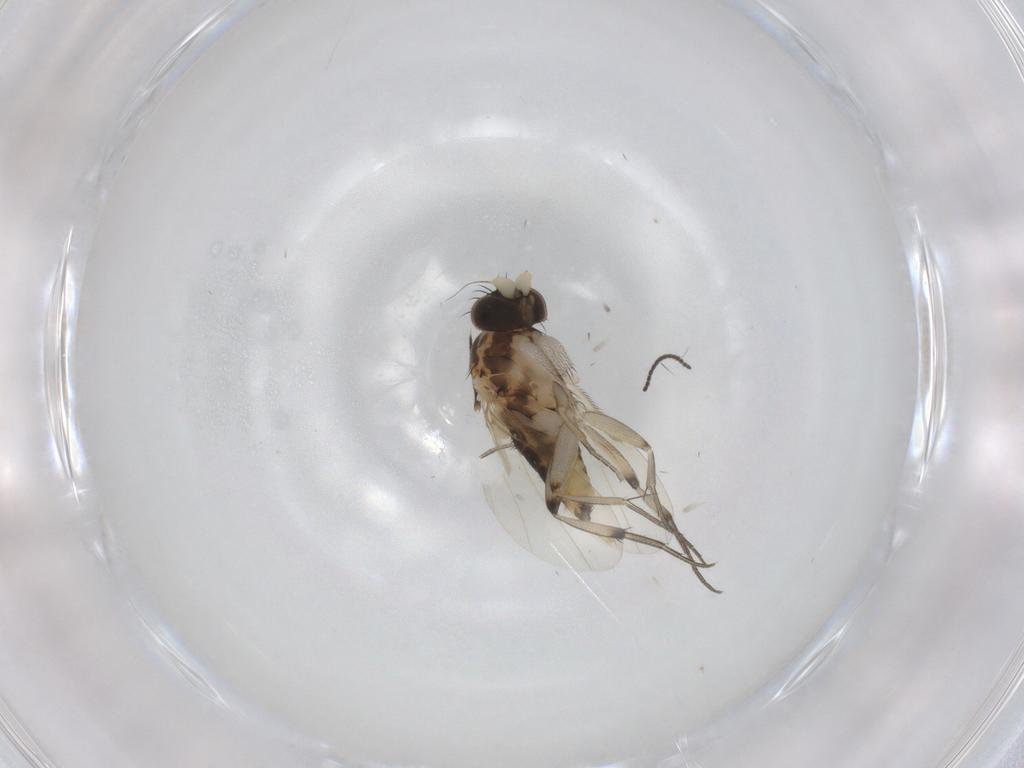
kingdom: Animalia
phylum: Arthropoda
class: Insecta
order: Diptera
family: Sciaridae
